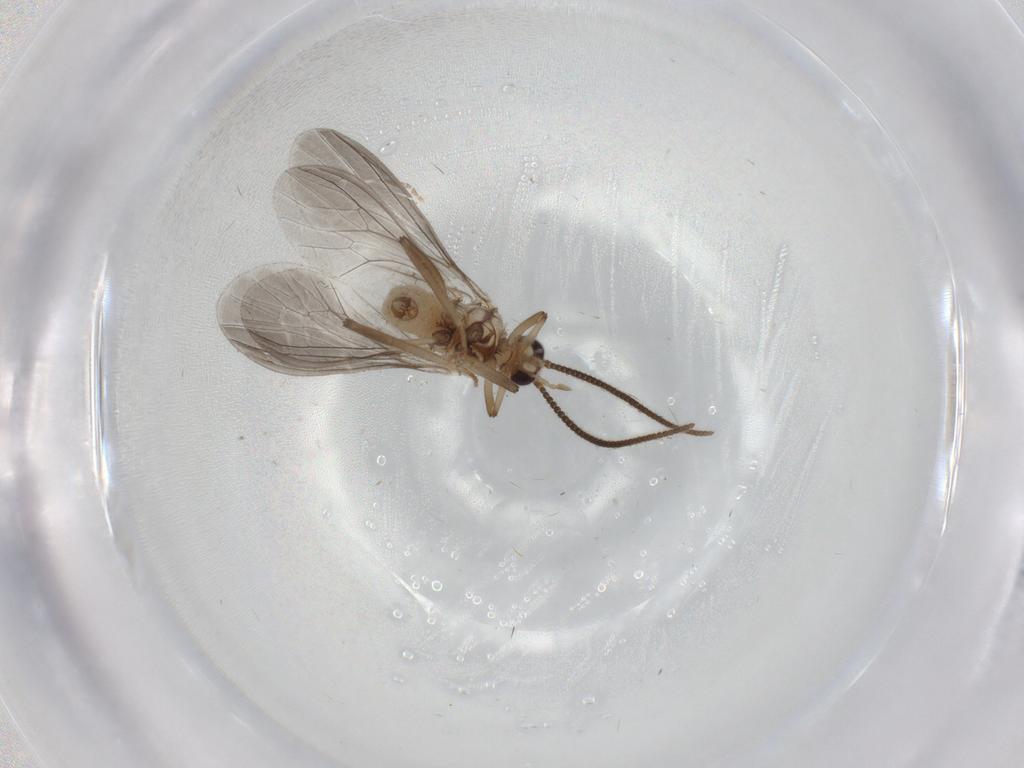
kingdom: Animalia
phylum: Arthropoda
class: Insecta
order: Neuroptera
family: Coniopterygidae
